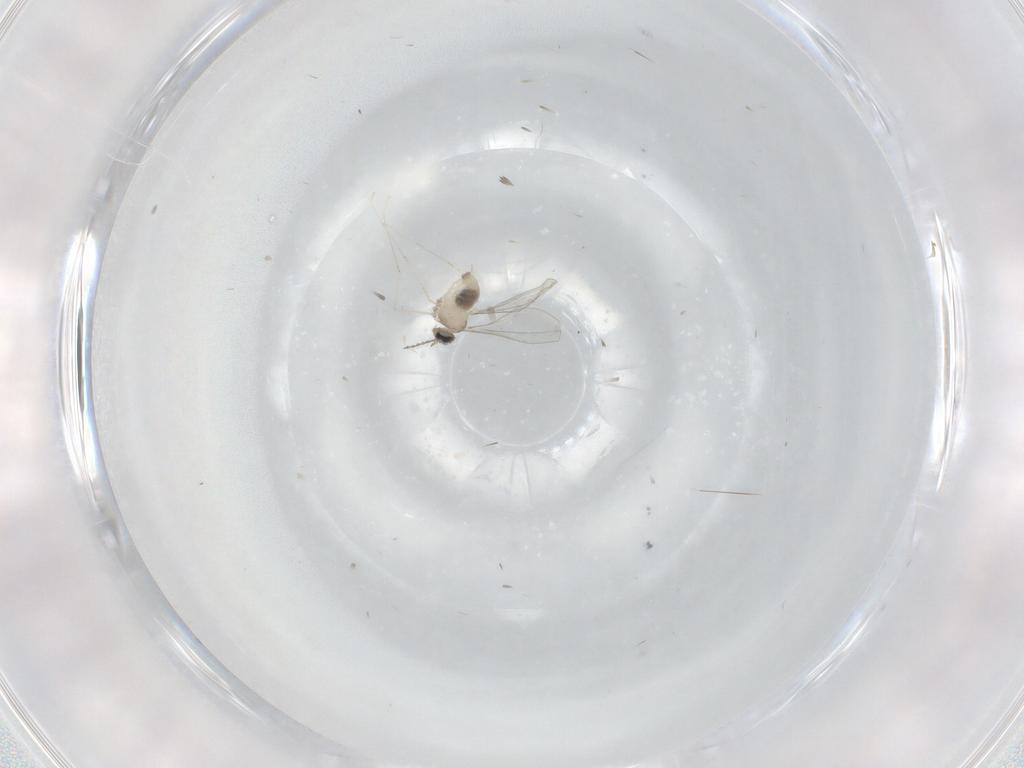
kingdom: Animalia
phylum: Arthropoda
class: Insecta
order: Diptera
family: Cecidomyiidae
